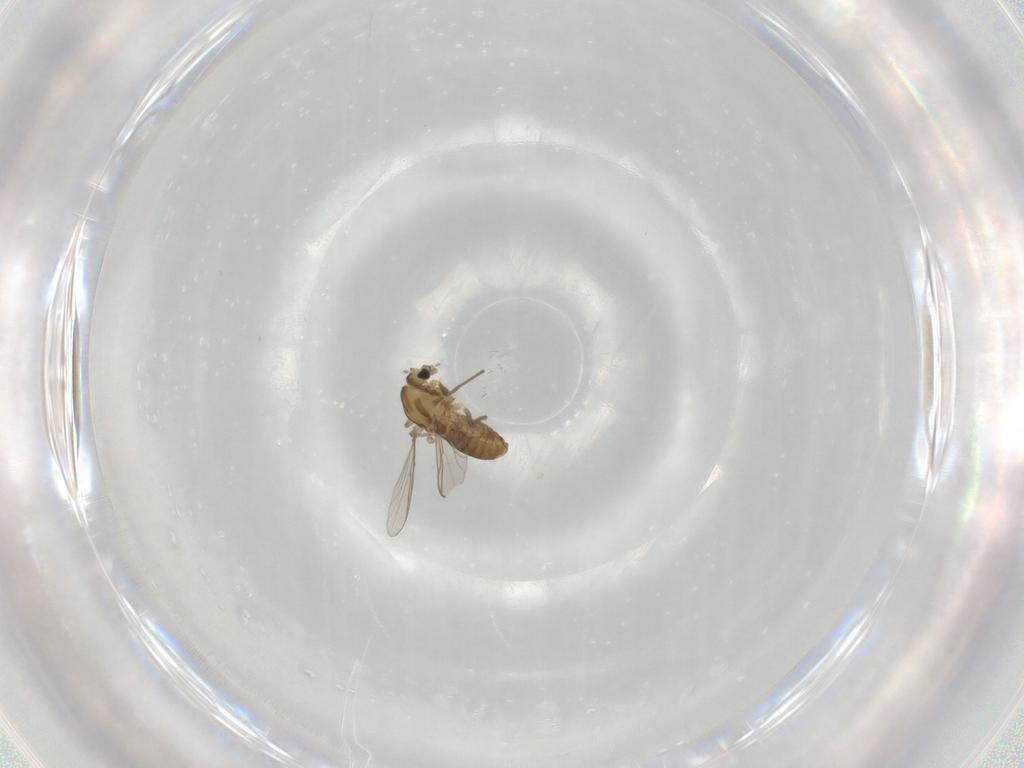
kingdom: Animalia
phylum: Arthropoda
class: Insecta
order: Diptera
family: Chironomidae
